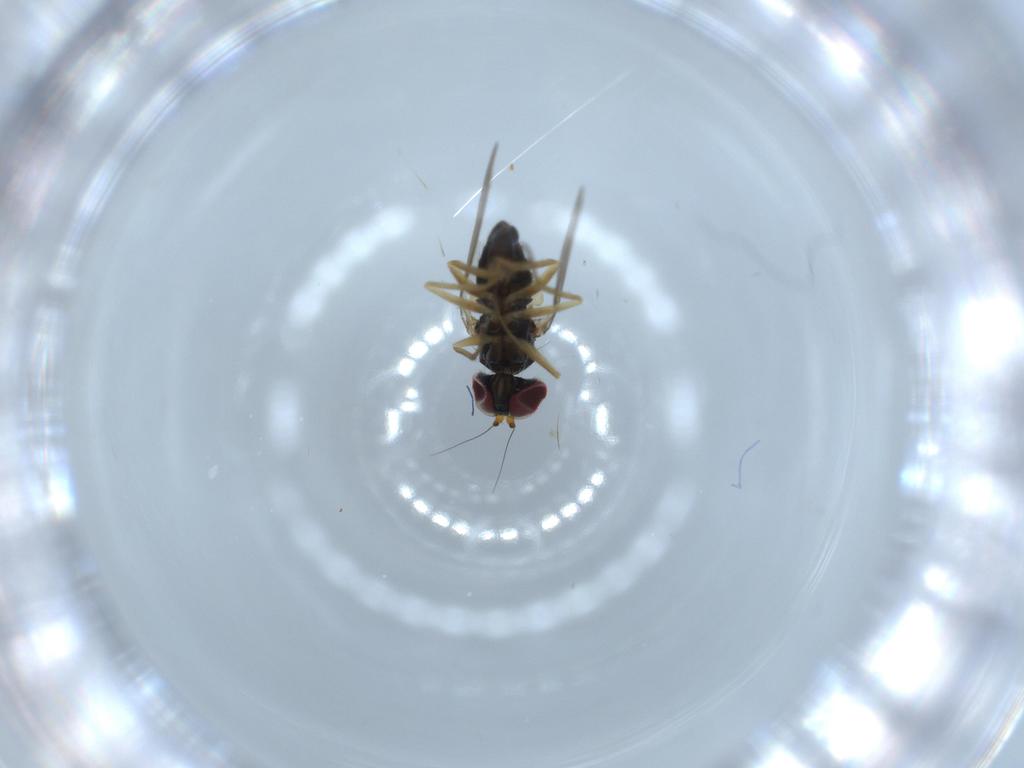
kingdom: Animalia
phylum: Arthropoda
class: Insecta
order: Diptera
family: Dolichopodidae
